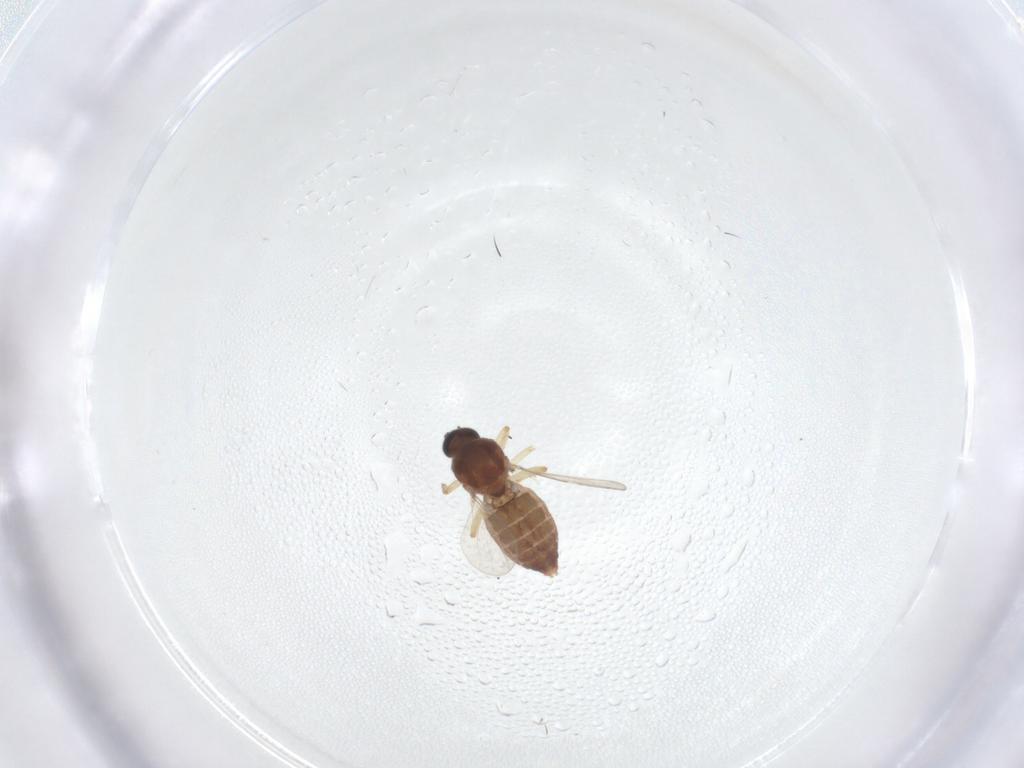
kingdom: Animalia
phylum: Arthropoda
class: Insecta
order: Diptera
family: Ceratopogonidae
